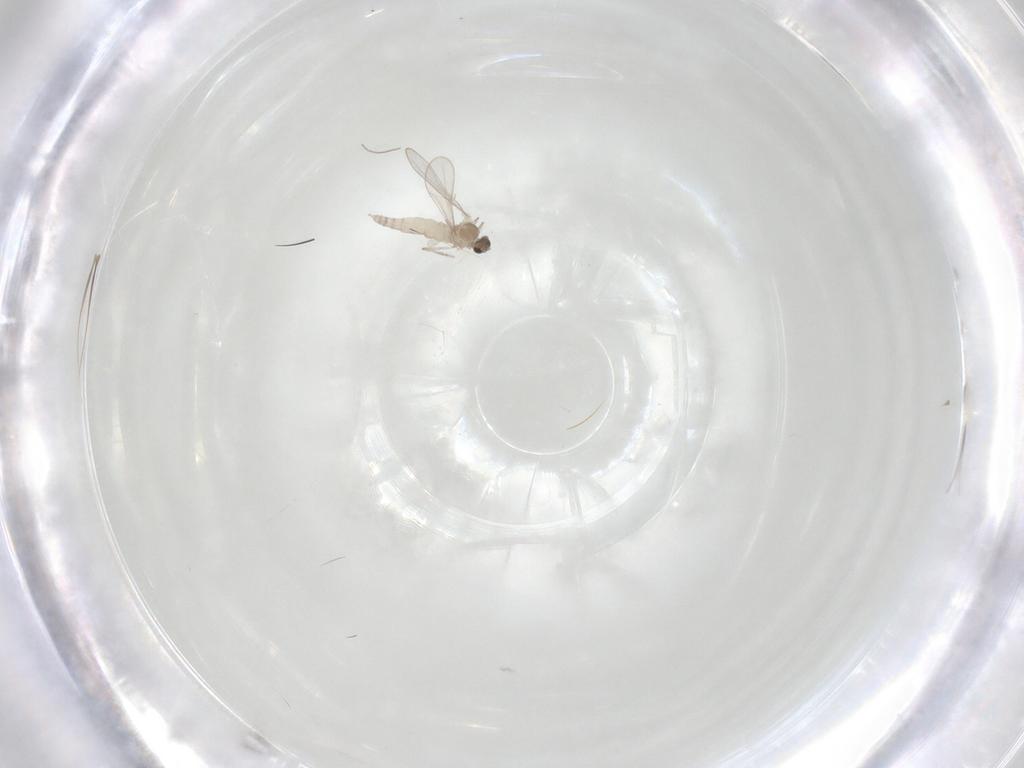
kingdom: Animalia
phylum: Arthropoda
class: Insecta
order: Diptera
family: Cecidomyiidae
